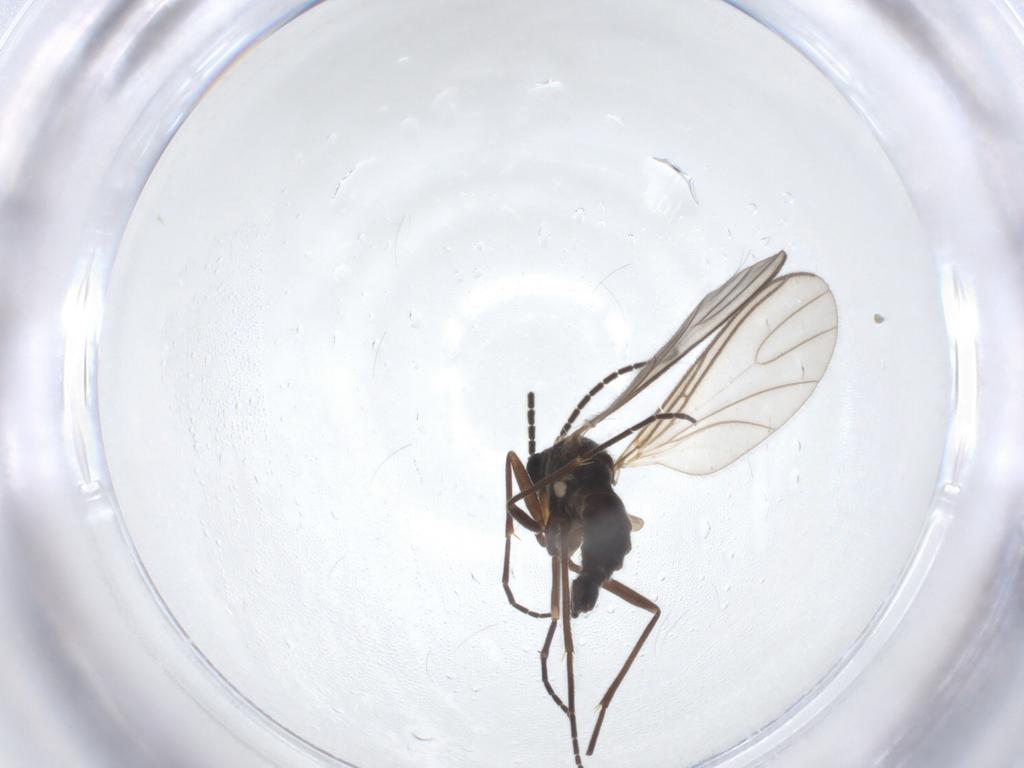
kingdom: Animalia
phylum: Arthropoda
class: Insecta
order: Diptera
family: Sciaridae
